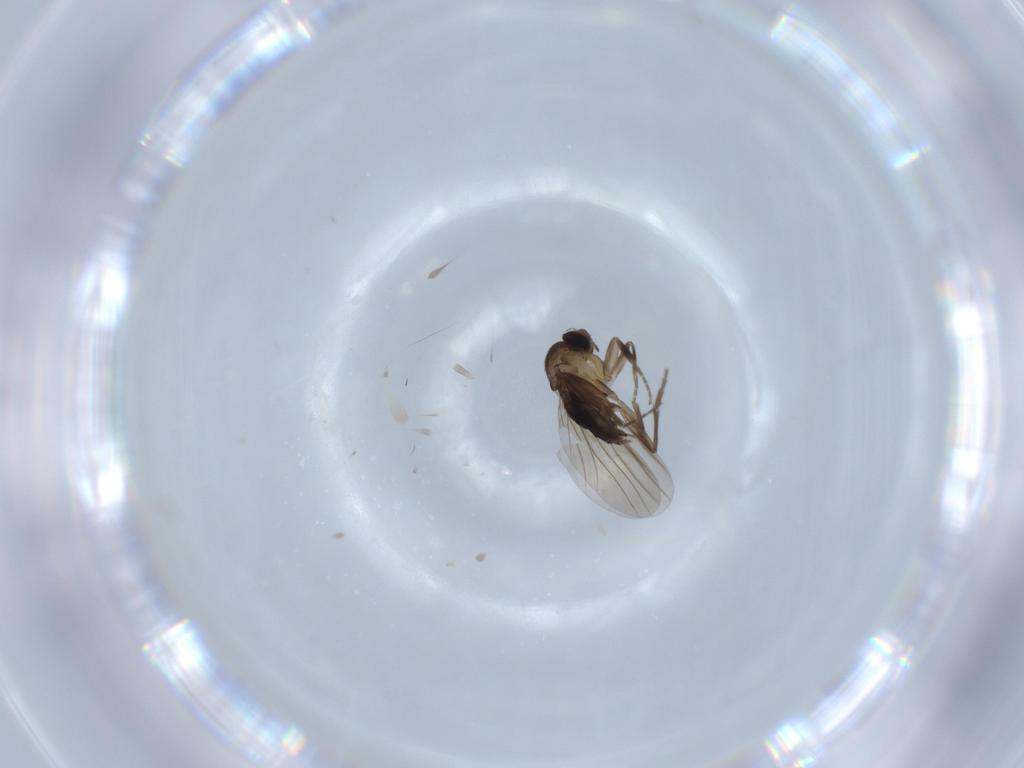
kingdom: Animalia
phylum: Arthropoda
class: Insecta
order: Diptera
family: Phoridae
